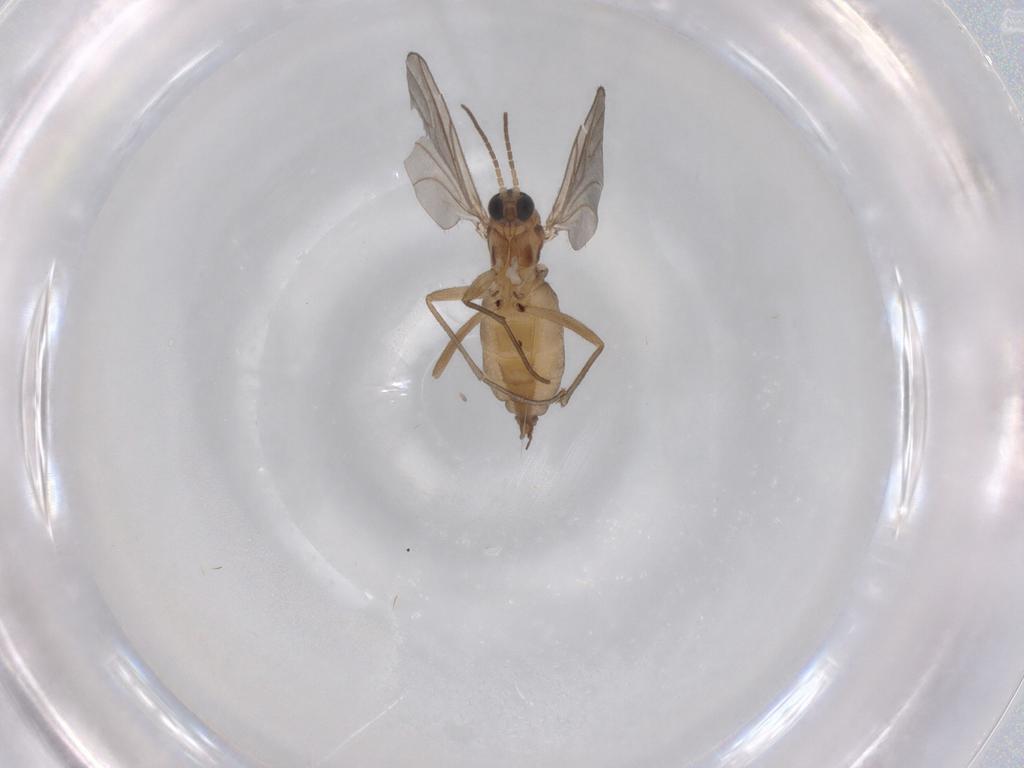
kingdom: Animalia
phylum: Arthropoda
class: Insecta
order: Diptera
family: Sciaridae
